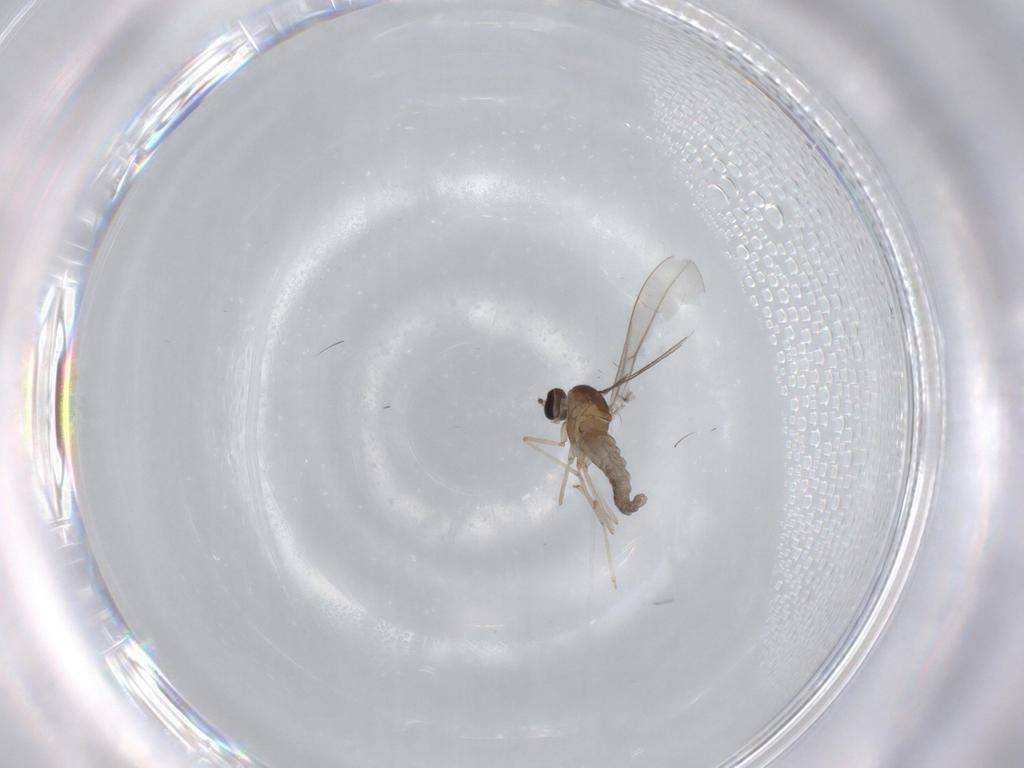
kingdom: Animalia
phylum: Arthropoda
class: Insecta
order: Diptera
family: Cecidomyiidae
